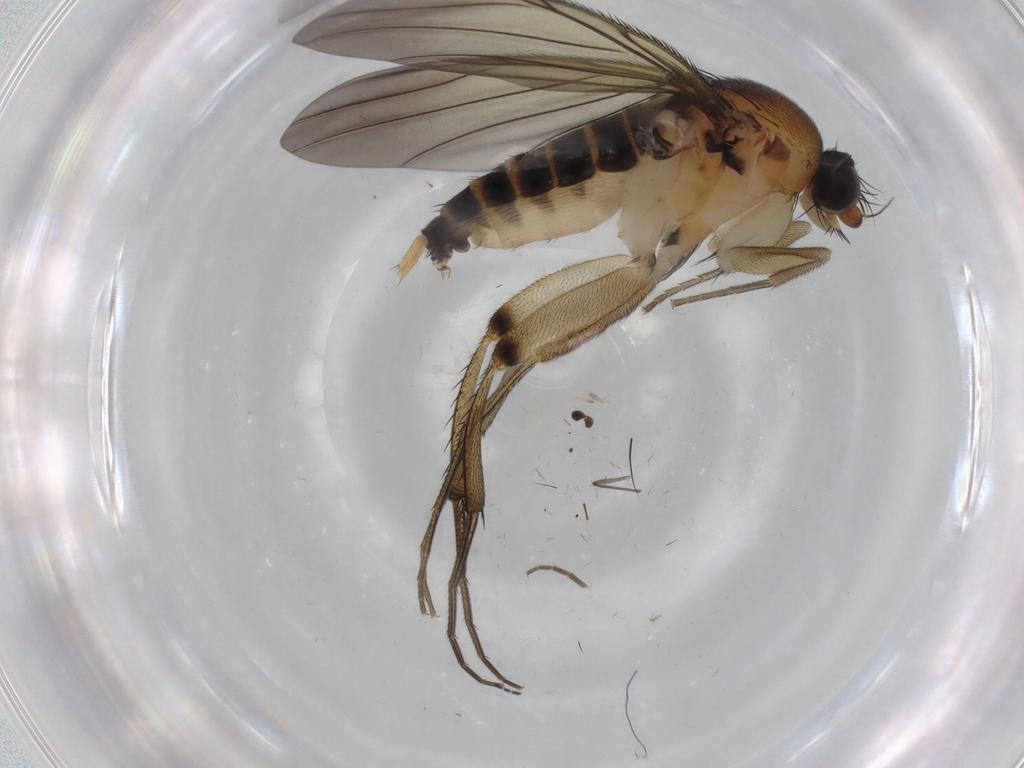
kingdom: Animalia
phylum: Arthropoda
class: Insecta
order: Diptera
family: Phoridae
